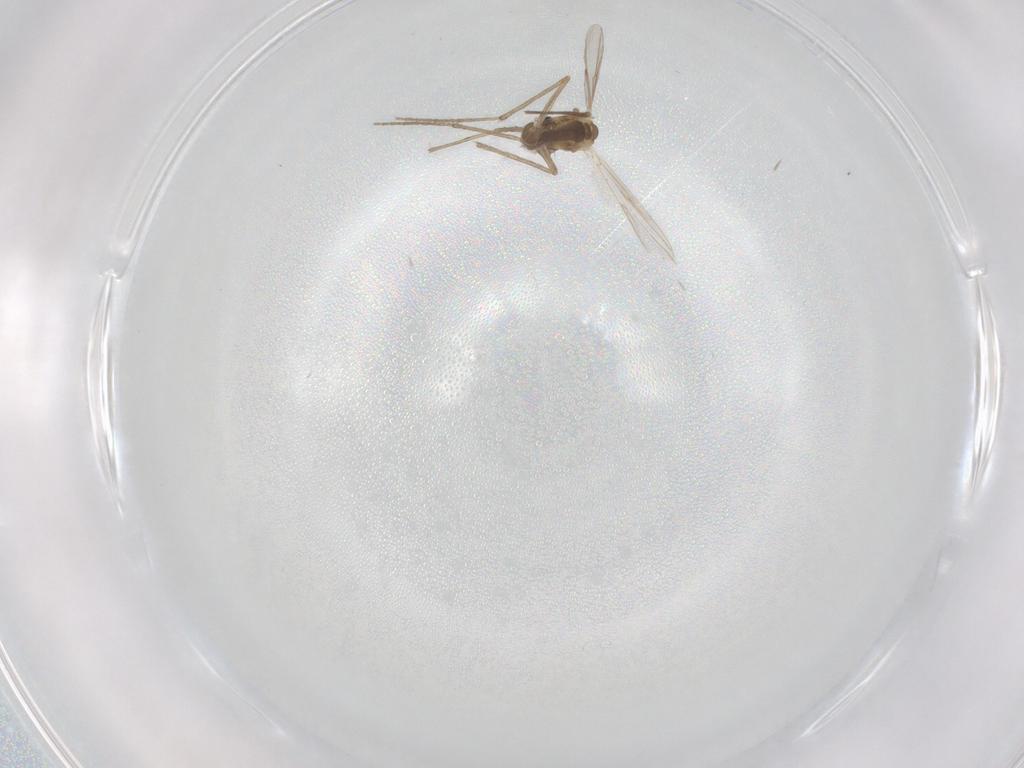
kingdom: Animalia
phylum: Arthropoda
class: Insecta
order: Diptera
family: Chironomidae
